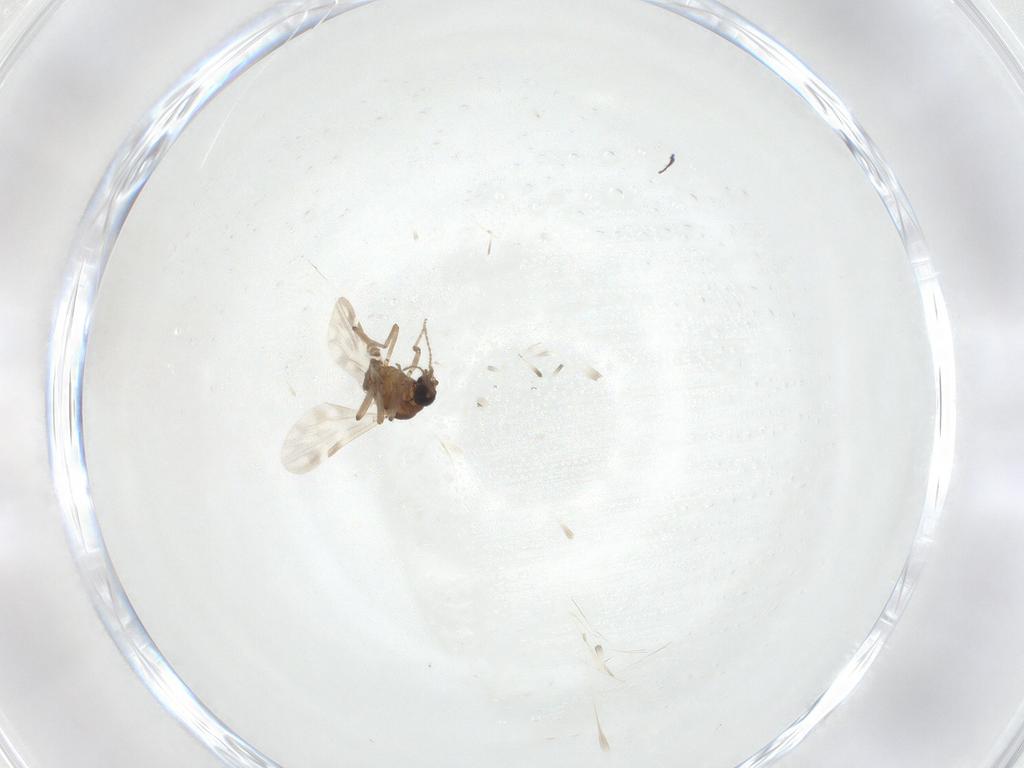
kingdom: Animalia
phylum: Arthropoda
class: Insecta
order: Diptera
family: Ceratopogonidae
